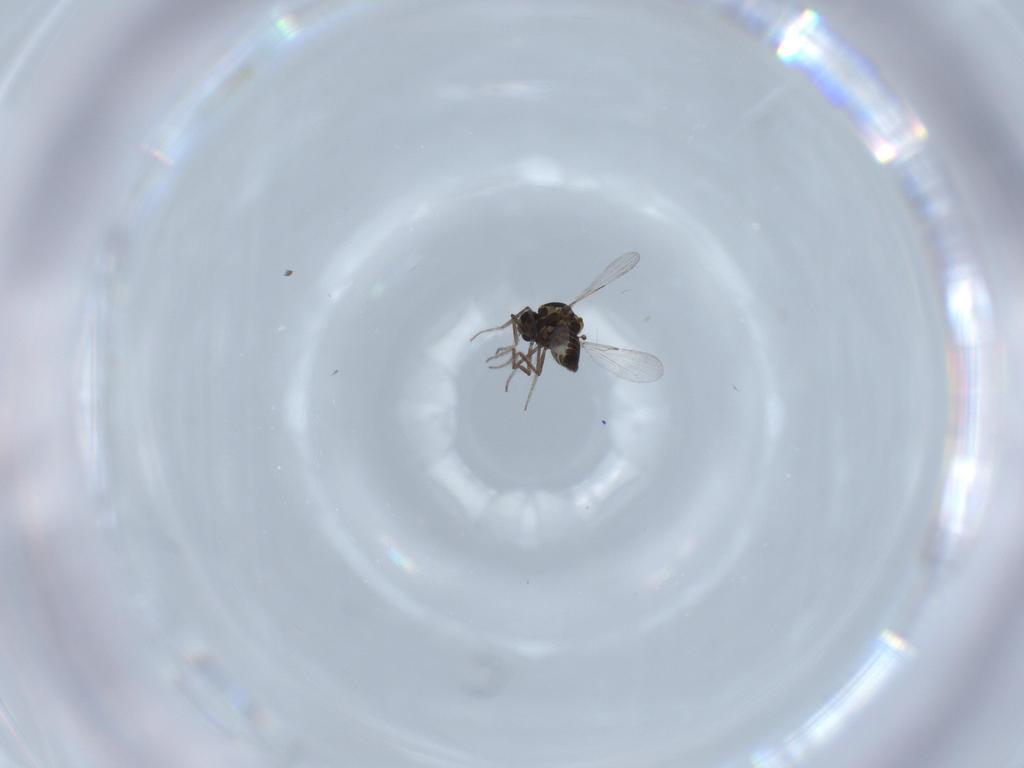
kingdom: Animalia
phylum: Arthropoda
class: Insecta
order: Diptera
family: Ceratopogonidae
